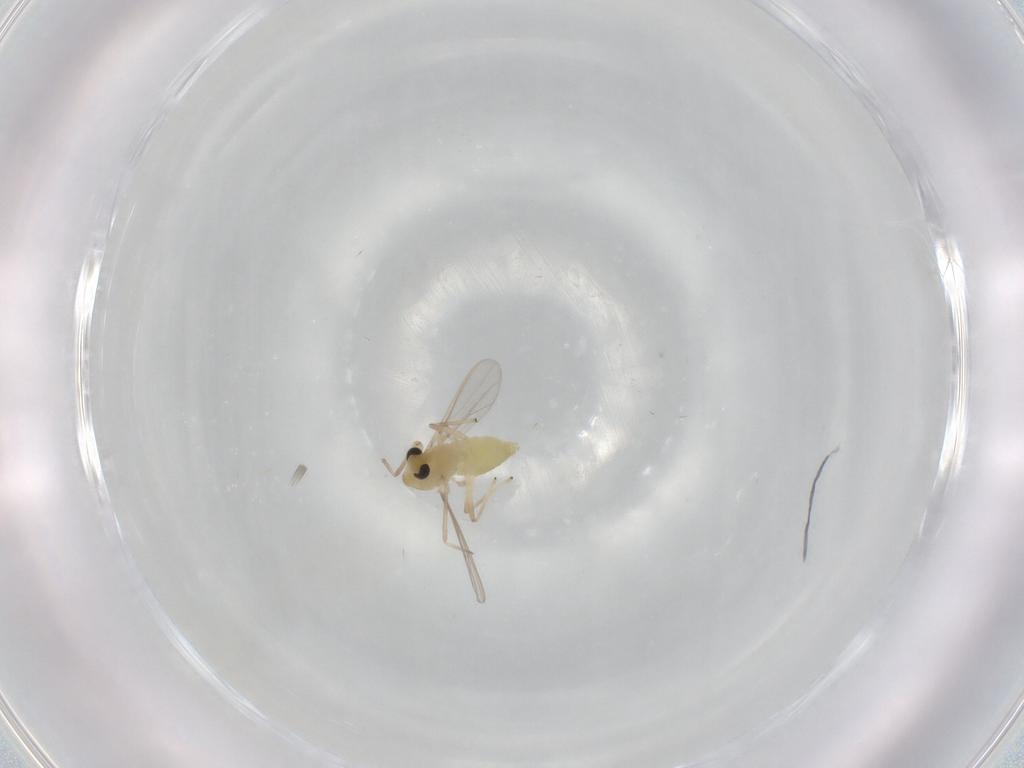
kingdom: Animalia
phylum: Arthropoda
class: Insecta
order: Diptera
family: Chironomidae
